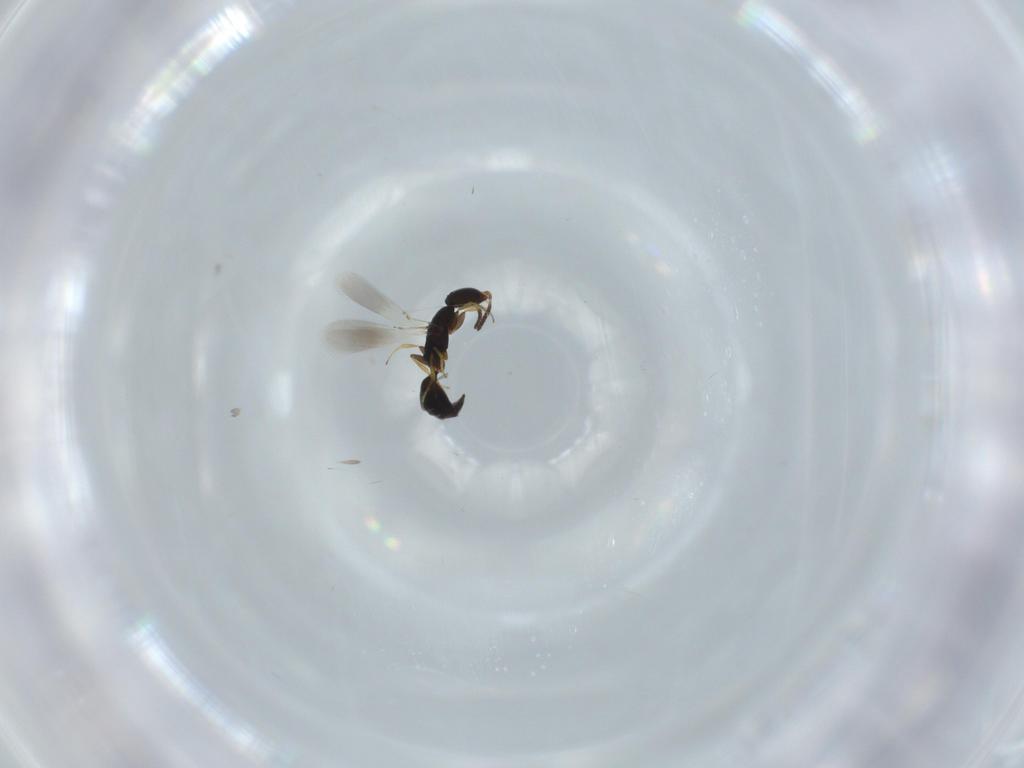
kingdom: Animalia
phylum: Arthropoda
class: Insecta
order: Hymenoptera
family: Bethylidae
